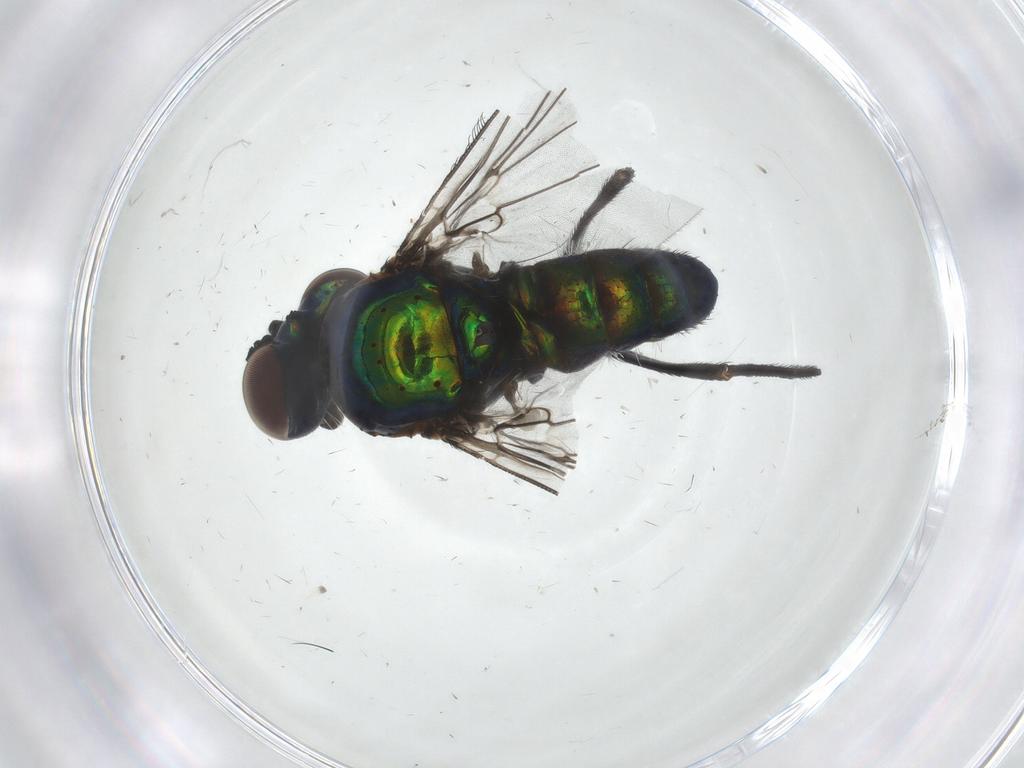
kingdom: Animalia
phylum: Arthropoda
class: Insecta
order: Diptera
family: Dolichopodidae
